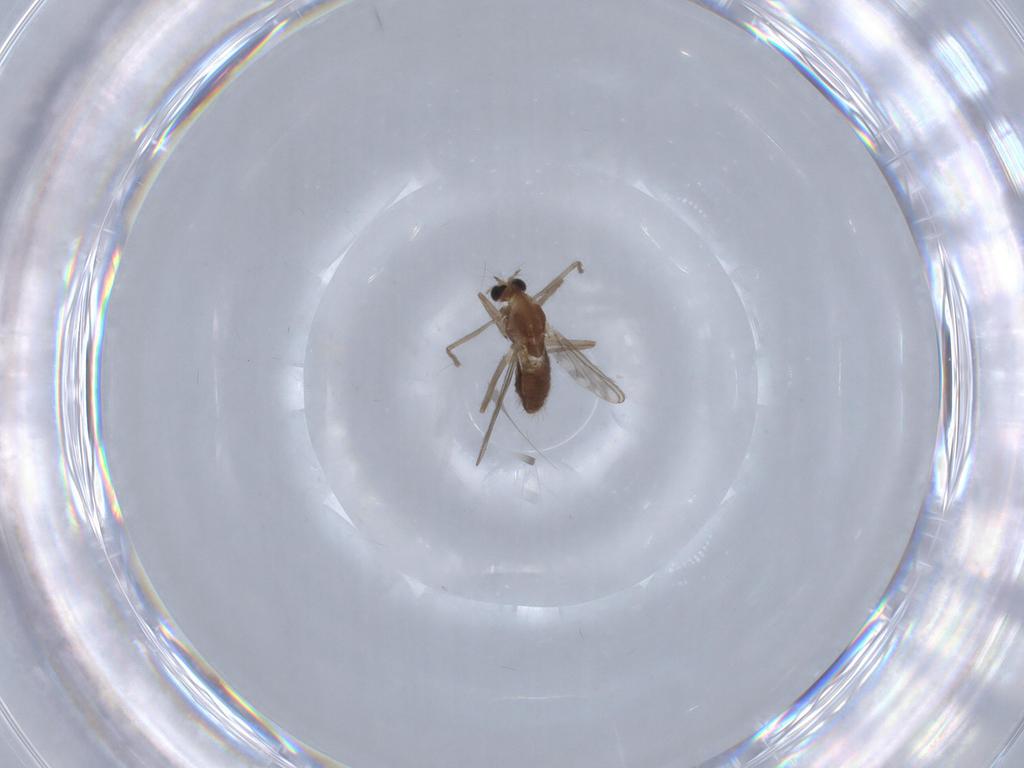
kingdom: Animalia
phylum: Arthropoda
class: Insecta
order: Diptera
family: Chironomidae
